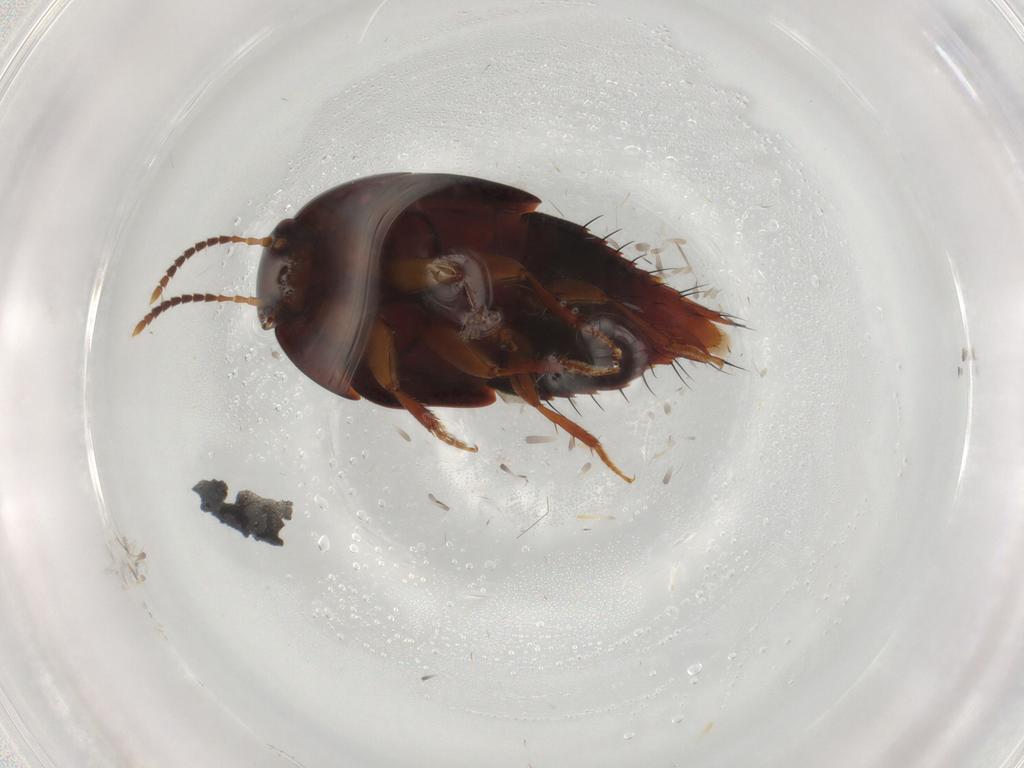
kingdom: Animalia
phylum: Arthropoda
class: Insecta
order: Coleoptera
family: Staphylinidae
